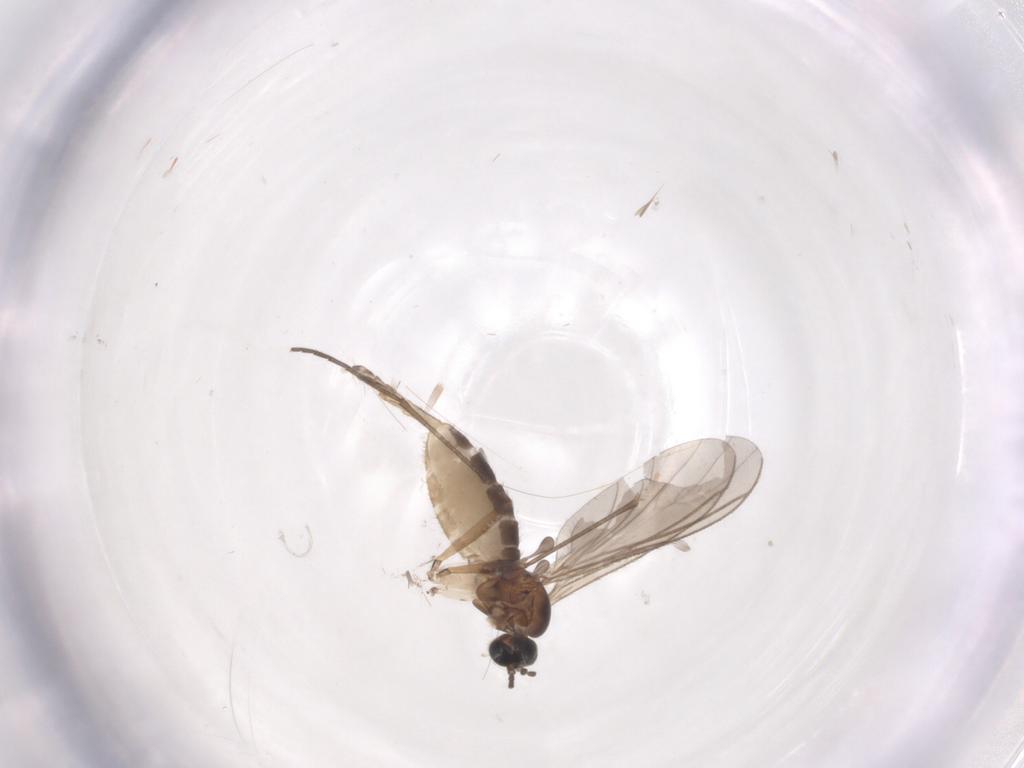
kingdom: Animalia
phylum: Arthropoda
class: Insecta
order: Diptera
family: Sciaridae
